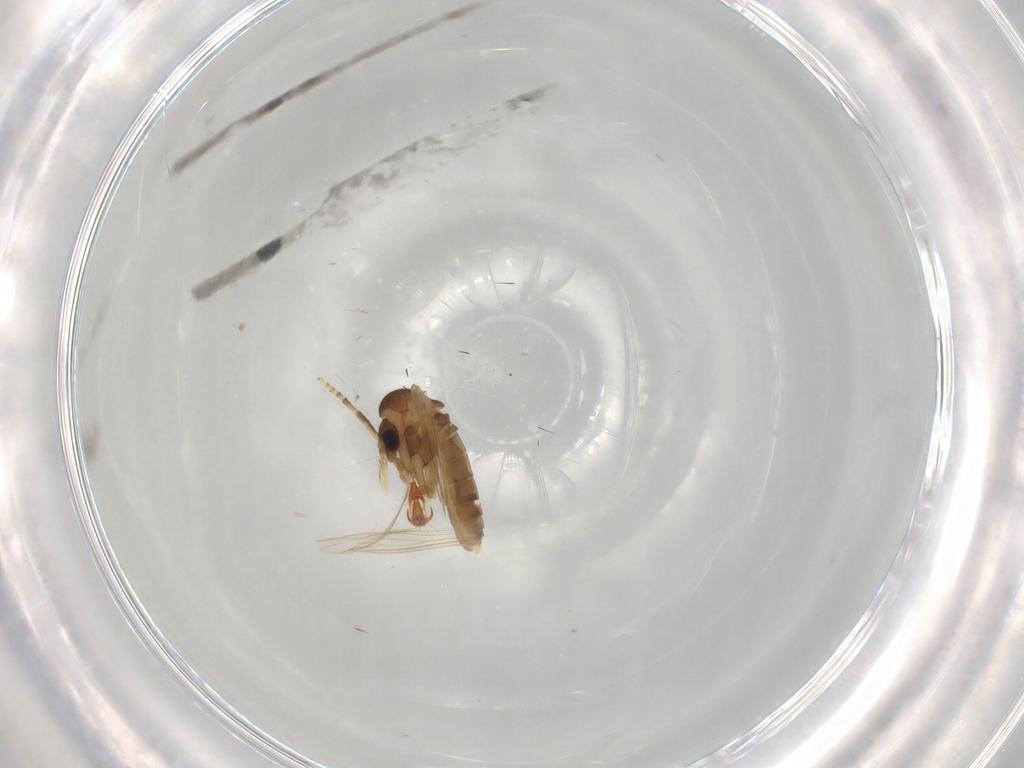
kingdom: Animalia
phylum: Arthropoda
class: Insecta
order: Diptera
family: Psychodidae
